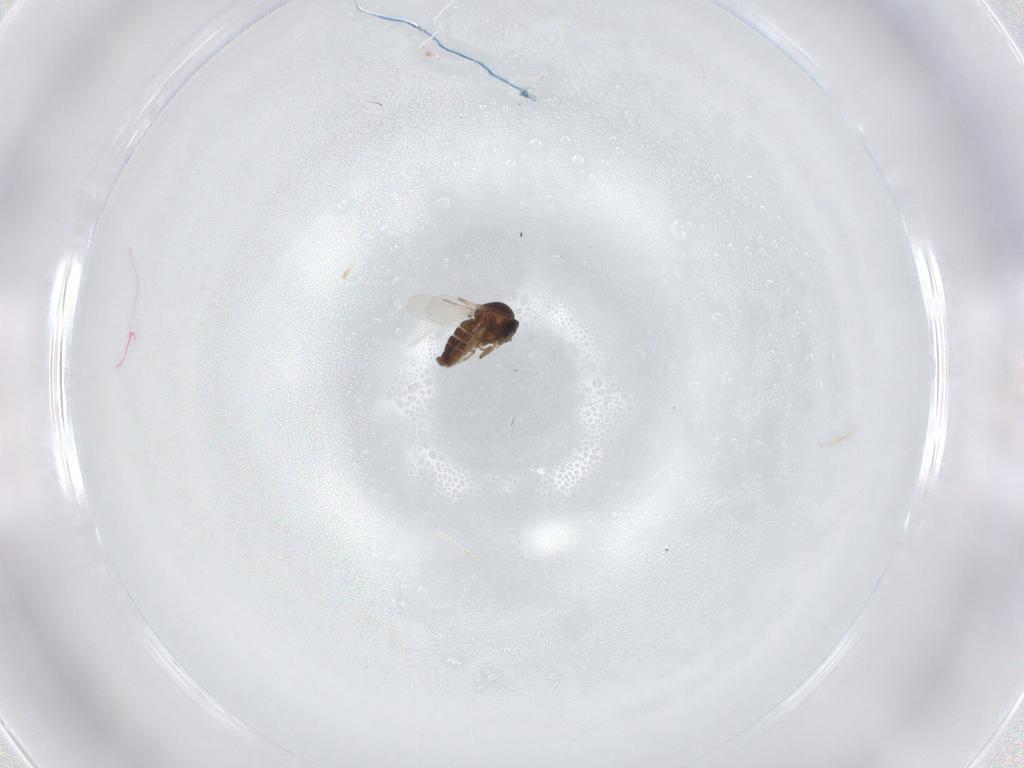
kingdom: Animalia
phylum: Arthropoda
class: Insecta
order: Diptera
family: Ceratopogonidae
